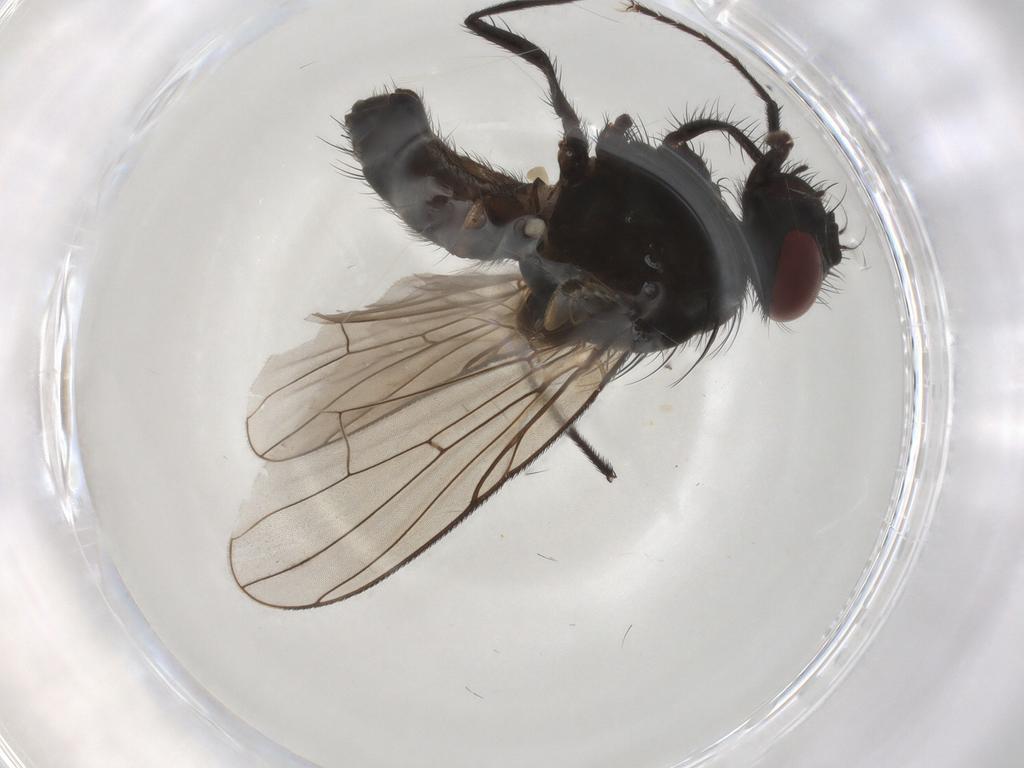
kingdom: Animalia
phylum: Arthropoda
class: Insecta
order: Diptera
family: Muscidae
